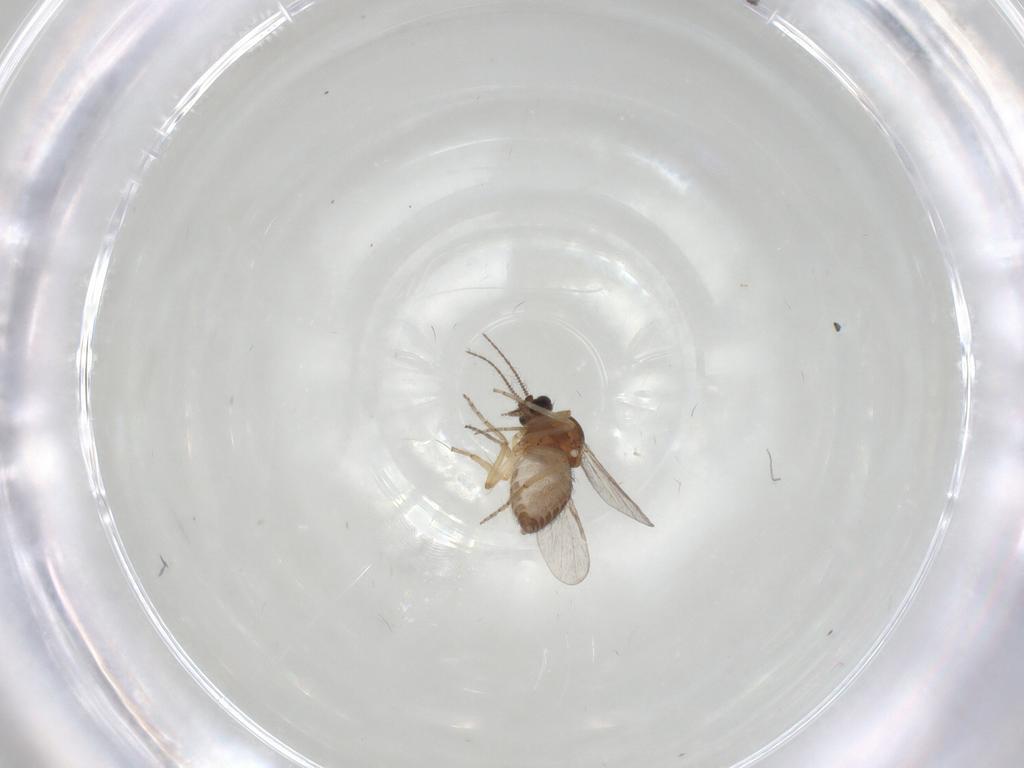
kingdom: Animalia
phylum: Arthropoda
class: Insecta
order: Diptera
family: Ceratopogonidae
